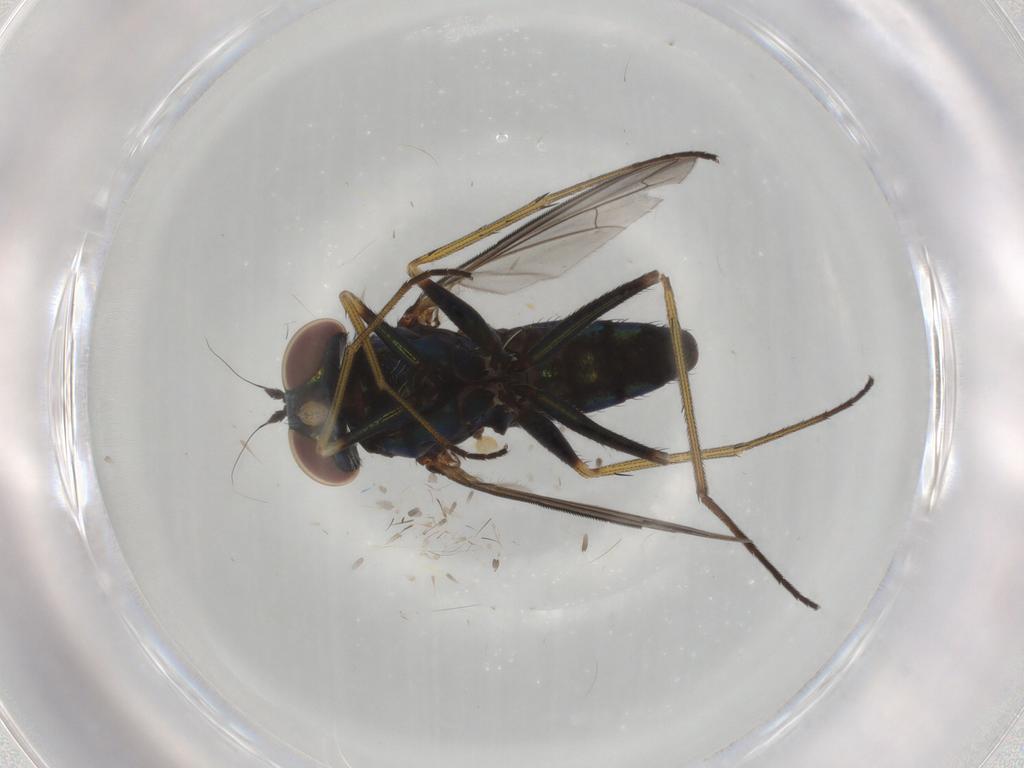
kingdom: Animalia
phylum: Arthropoda
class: Insecta
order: Diptera
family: Dolichopodidae
